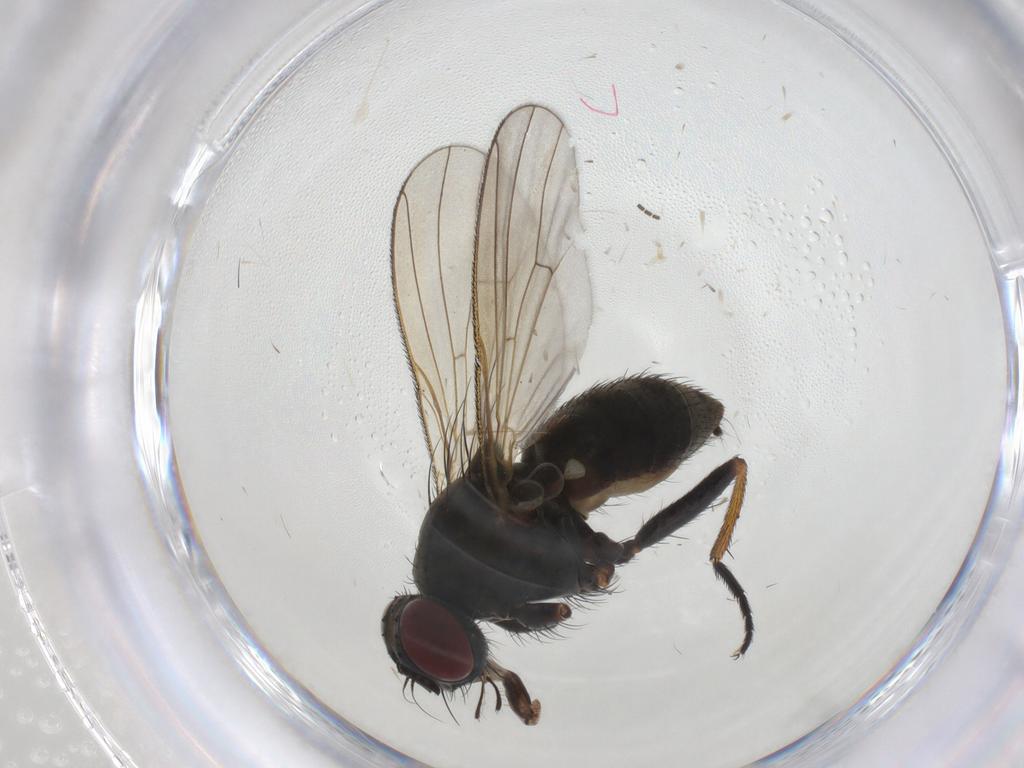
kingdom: Animalia
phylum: Arthropoda
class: Insecta
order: Diptera
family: Muscidae
